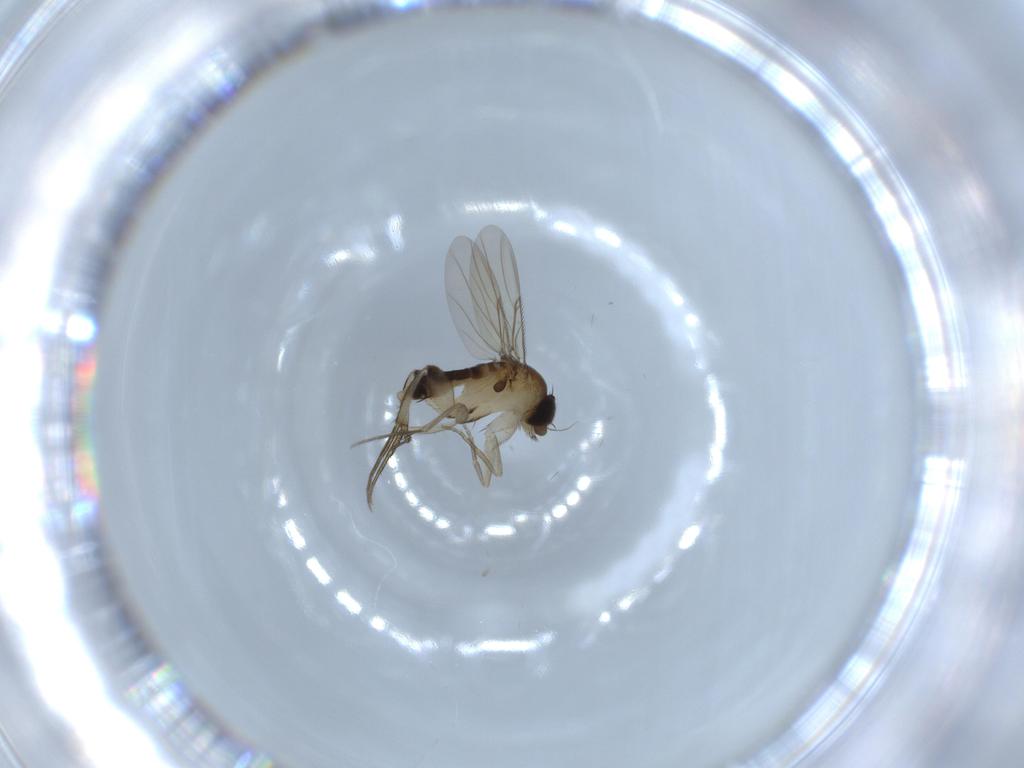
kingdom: Animalia
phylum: Arthropoda
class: Insecta
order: Diptera
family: Phoridae
